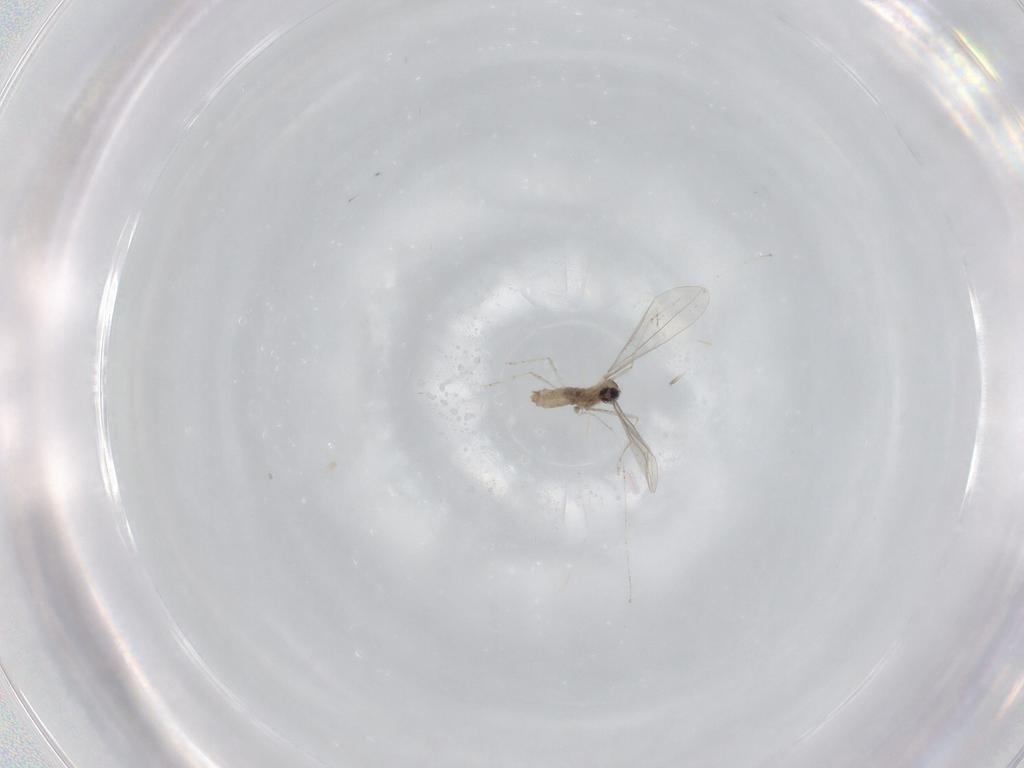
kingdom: Animalia
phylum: Arthropoda
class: Insecta
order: Diptera
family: Cecidomyiidae
